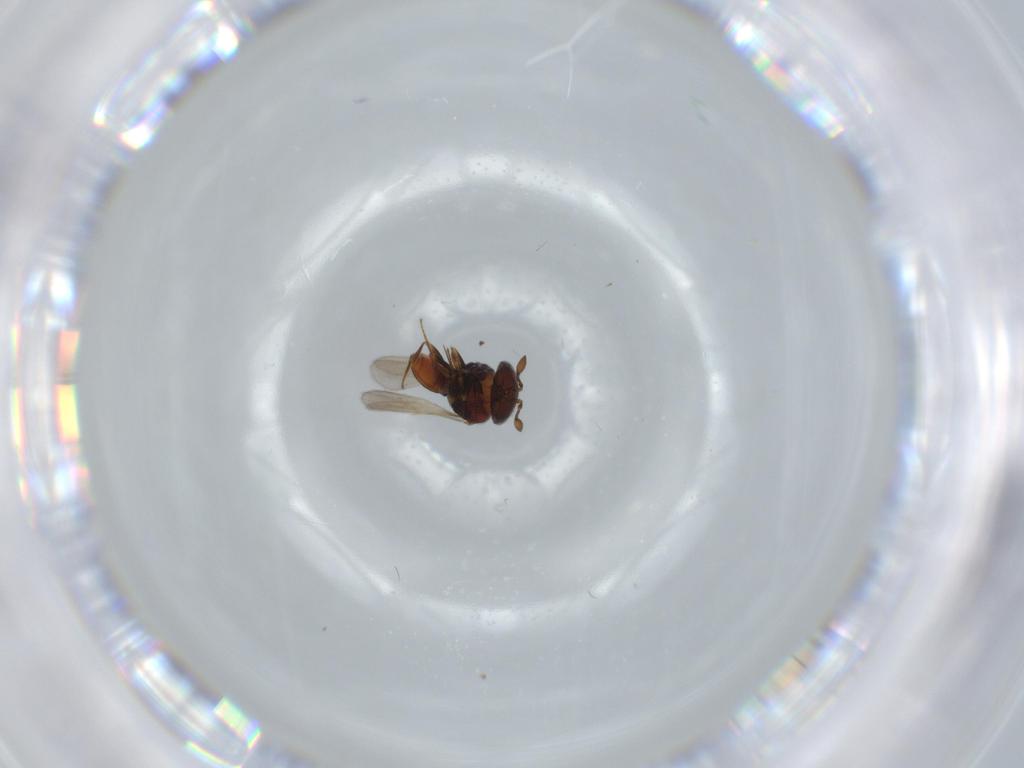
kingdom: Animalia
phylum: Arthropoda
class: Insecta
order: Hymenoptera
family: Scelionidae
